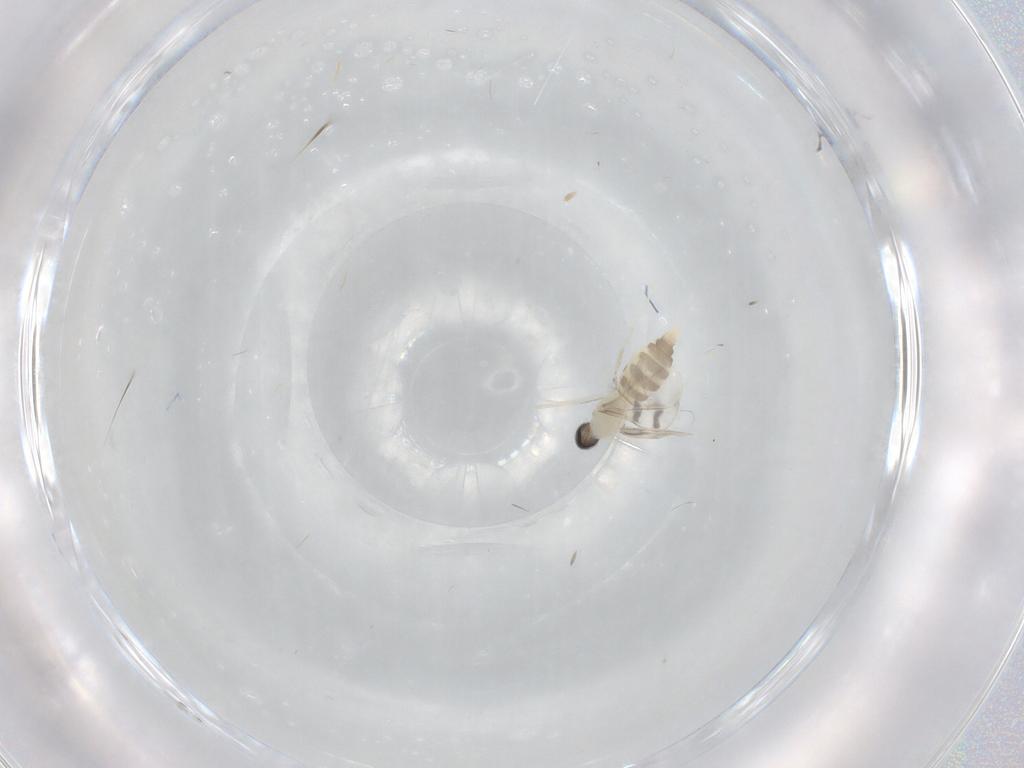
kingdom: Animalia
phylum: Arthropoda
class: Insecta
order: Diptera
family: Cecidomyiidae
